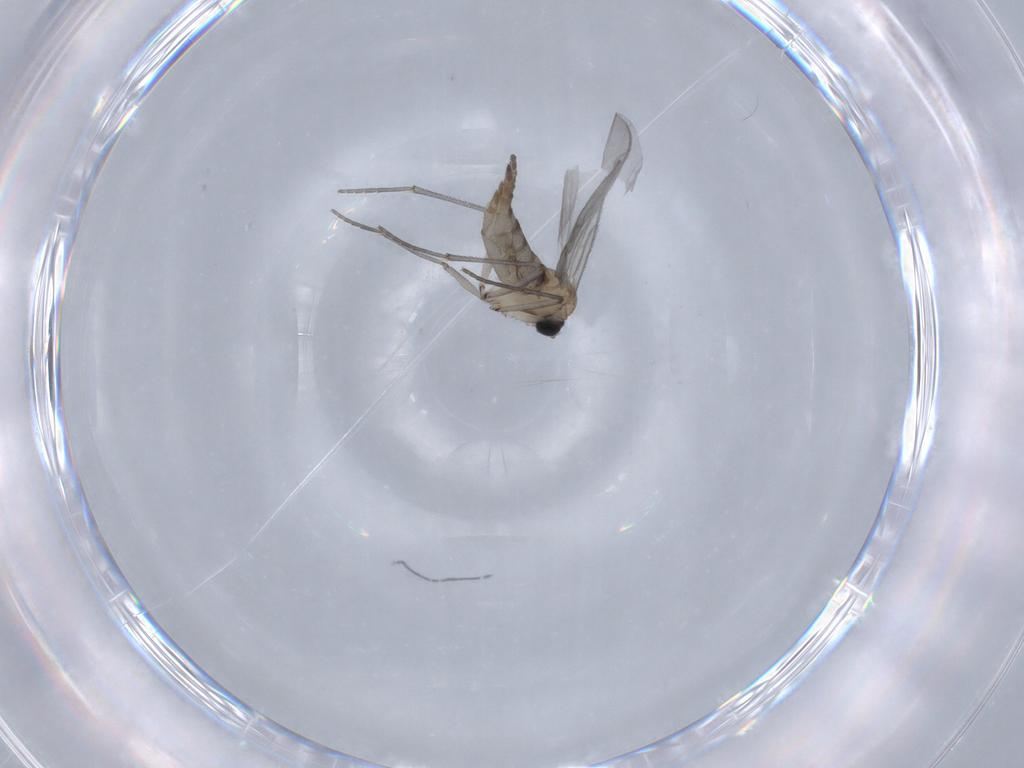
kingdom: Animalia
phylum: Arthropoda
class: Insecta
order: Diptera
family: Sciaridae
